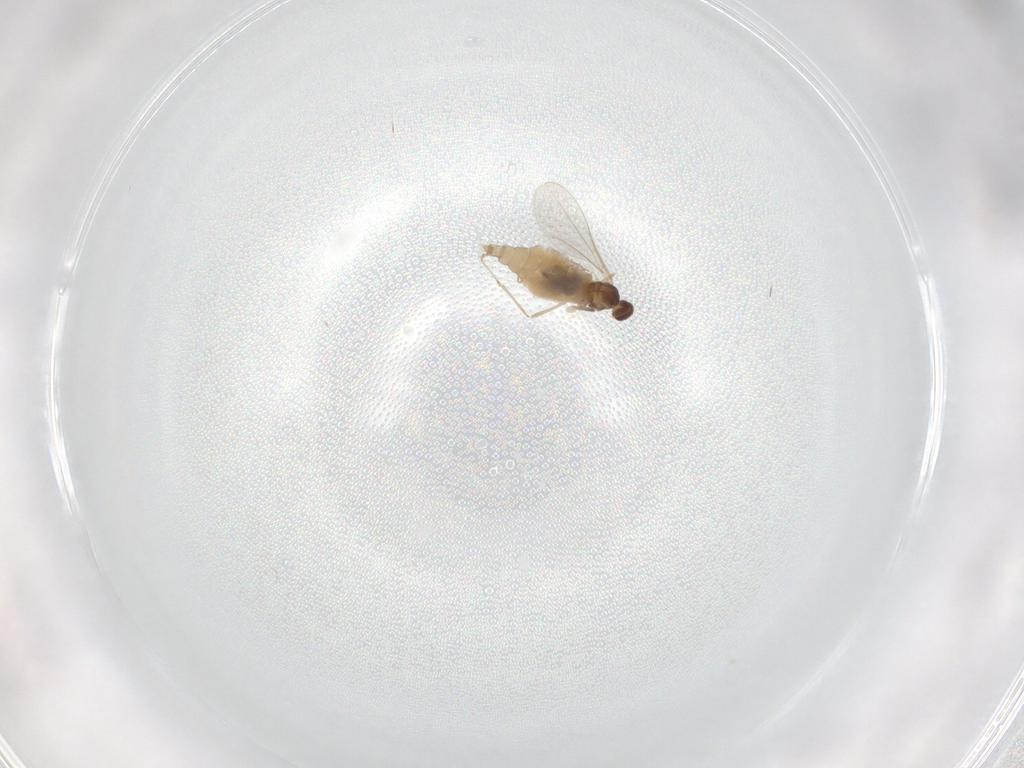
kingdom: Animalia
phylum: Arthropoda
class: Insecta
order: Diptera
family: Cecidomyiidae
